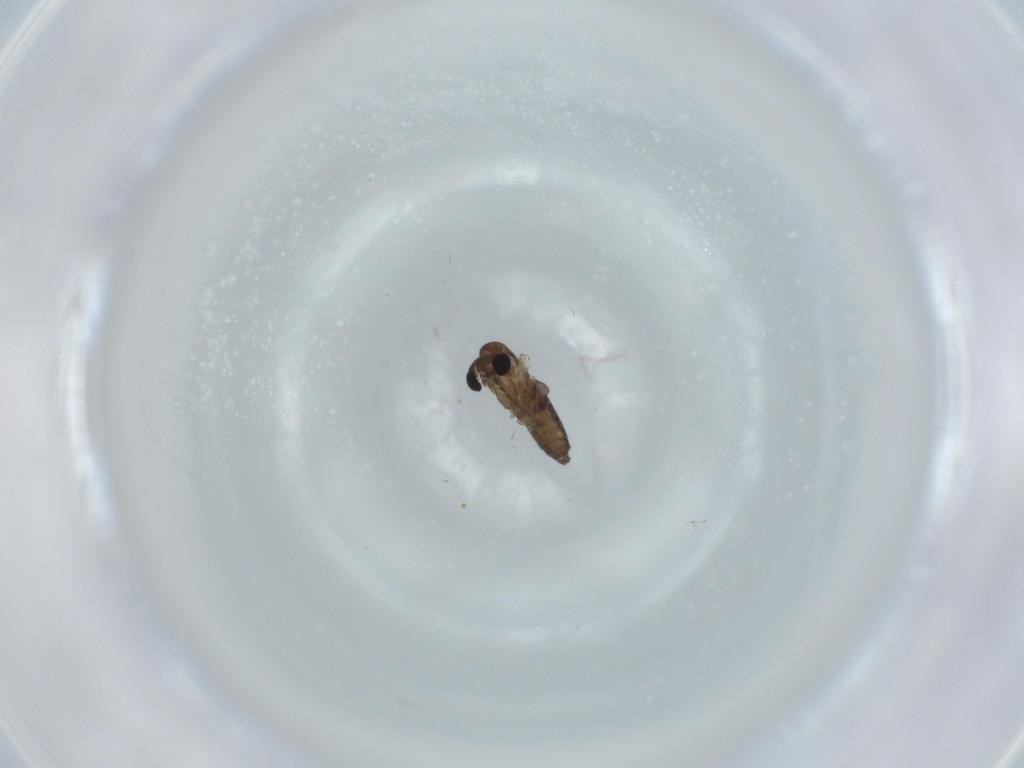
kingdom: Animalia
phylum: Arthropoda
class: Insecta
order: Diptera
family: Psychodidae
